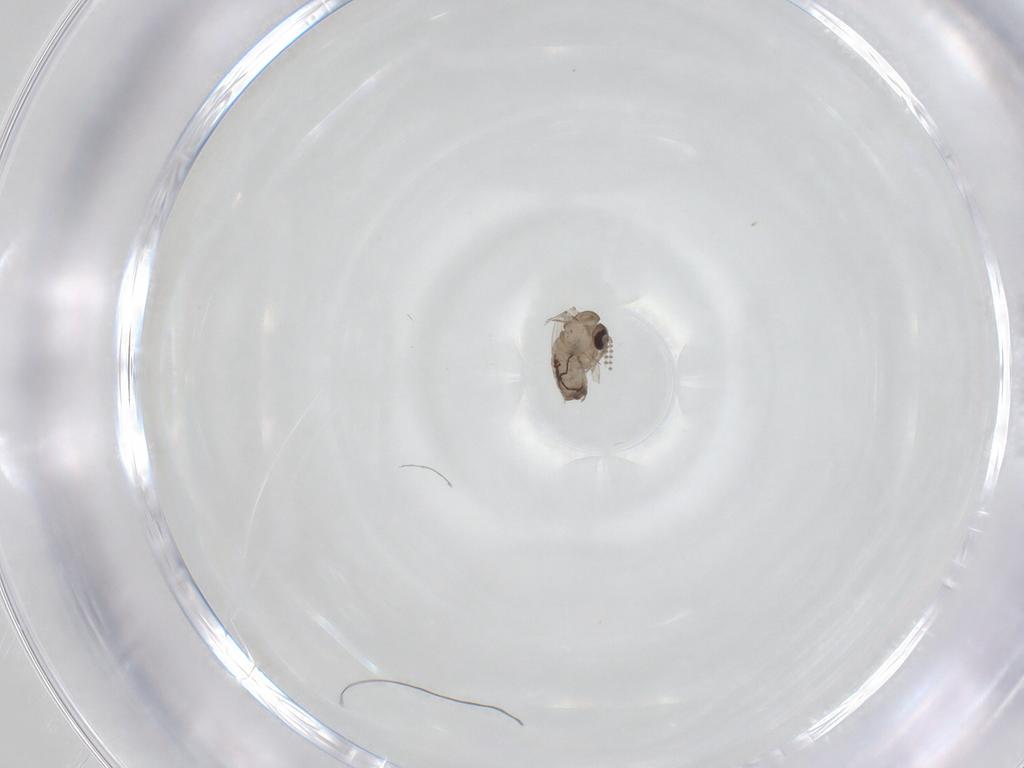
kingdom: Animalia
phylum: Arthropoda
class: Insecta
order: Diptera
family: Psychodidae
